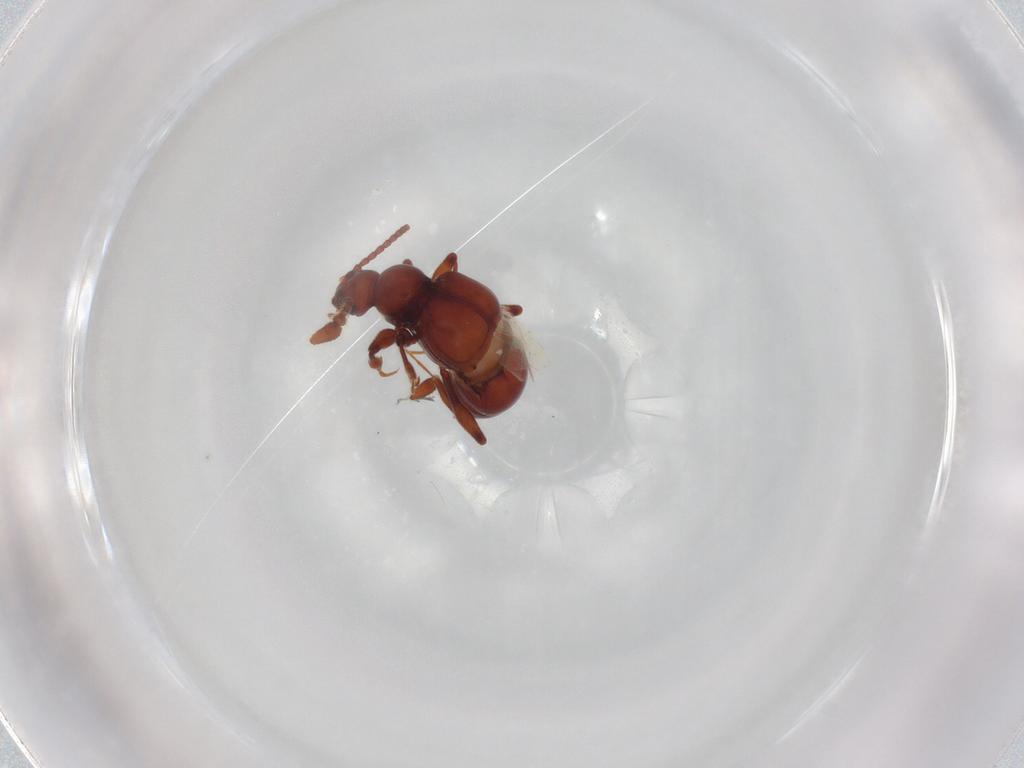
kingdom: Animalia
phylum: Arthropoda
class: Insecta
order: Coleoptera
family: Staphylinidae
